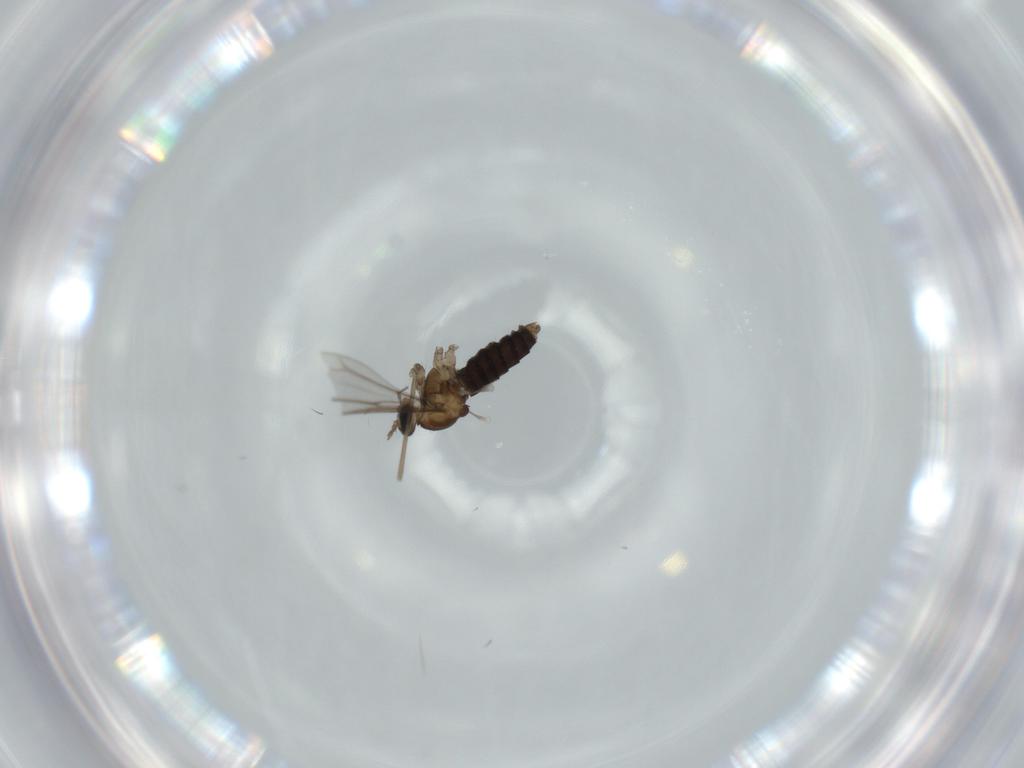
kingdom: Animalia
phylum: Arthropoda
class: Insecta
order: Diptera
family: Cecidomyiidae
